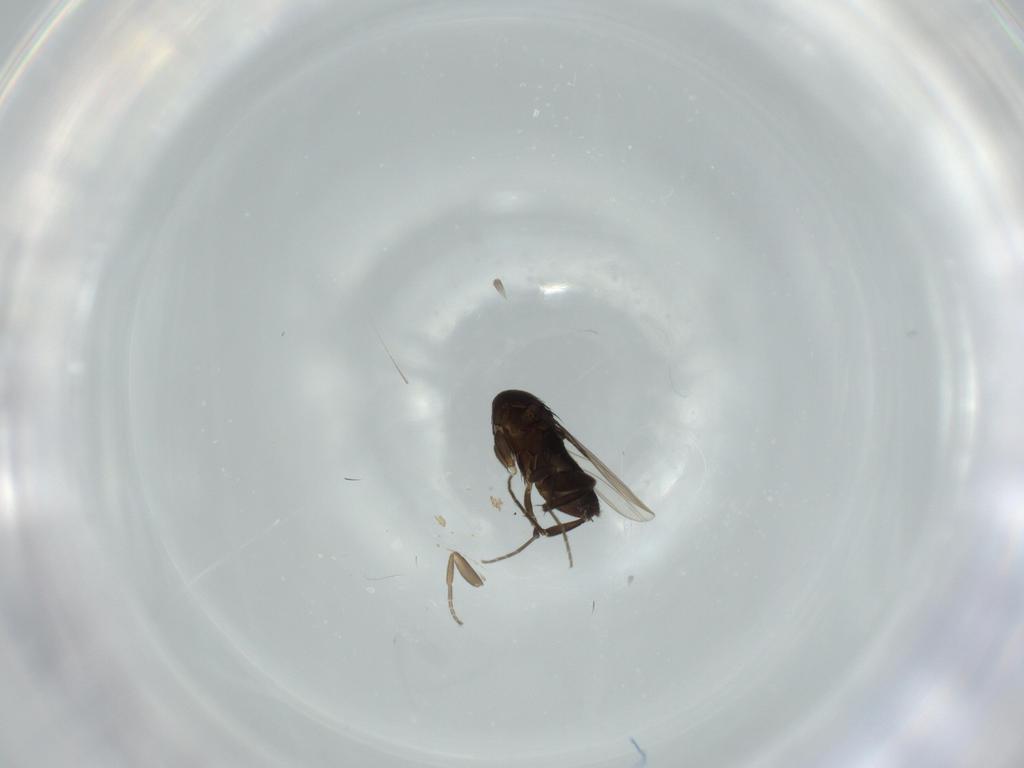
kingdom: Animalia
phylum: Arthropoda
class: Insecta
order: Diptera
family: Phoridae
